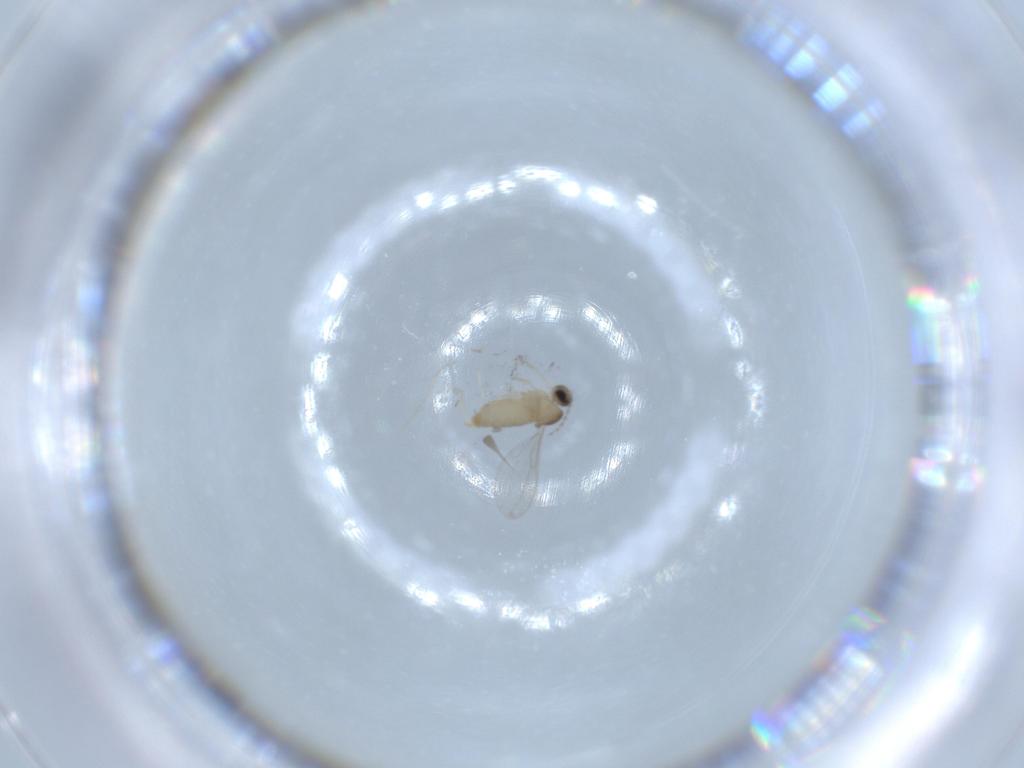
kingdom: Animalia
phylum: Arthropoda
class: Insecta
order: Diptera
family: Cecidomyiidae
